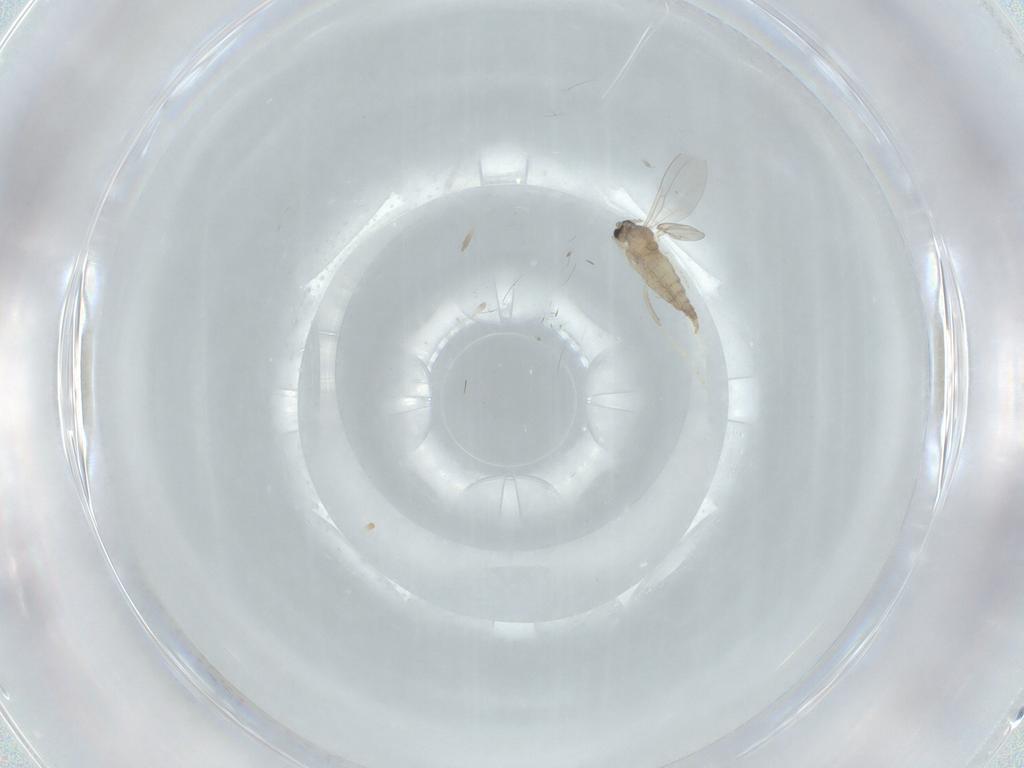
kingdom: Animalia
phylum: Arthropoda
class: Insecta
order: Diptera
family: Cecidomyiidae
